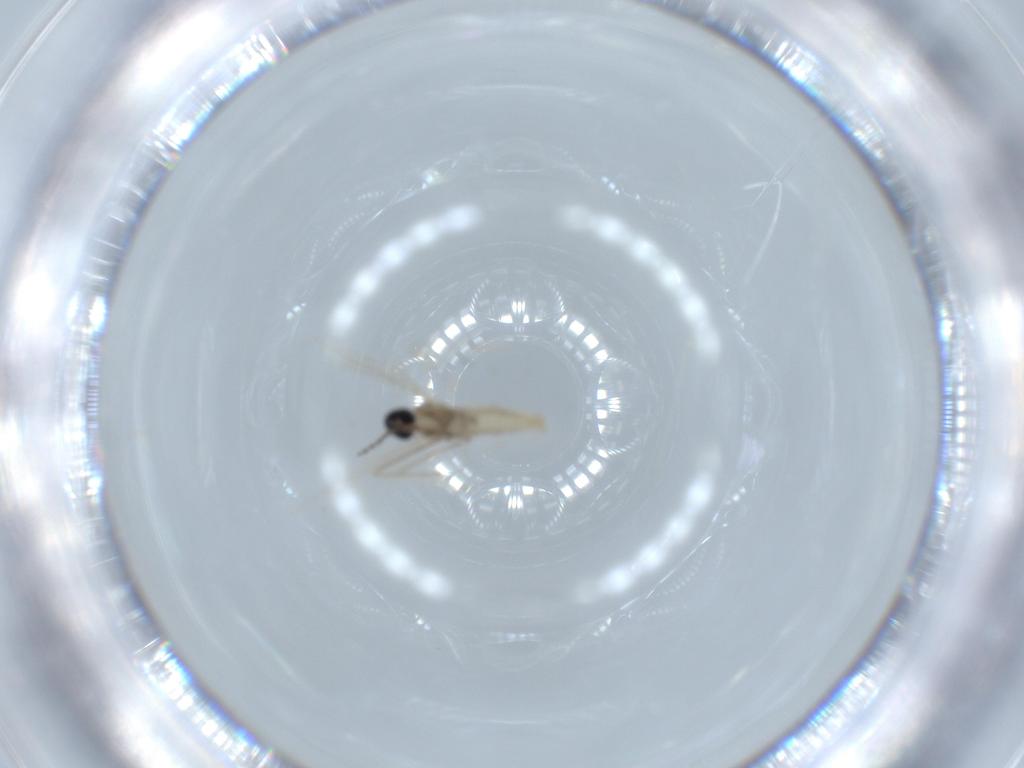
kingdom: Animalia
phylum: Arthropoda
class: Insecta
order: Diptera
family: Cecidomyiidae
